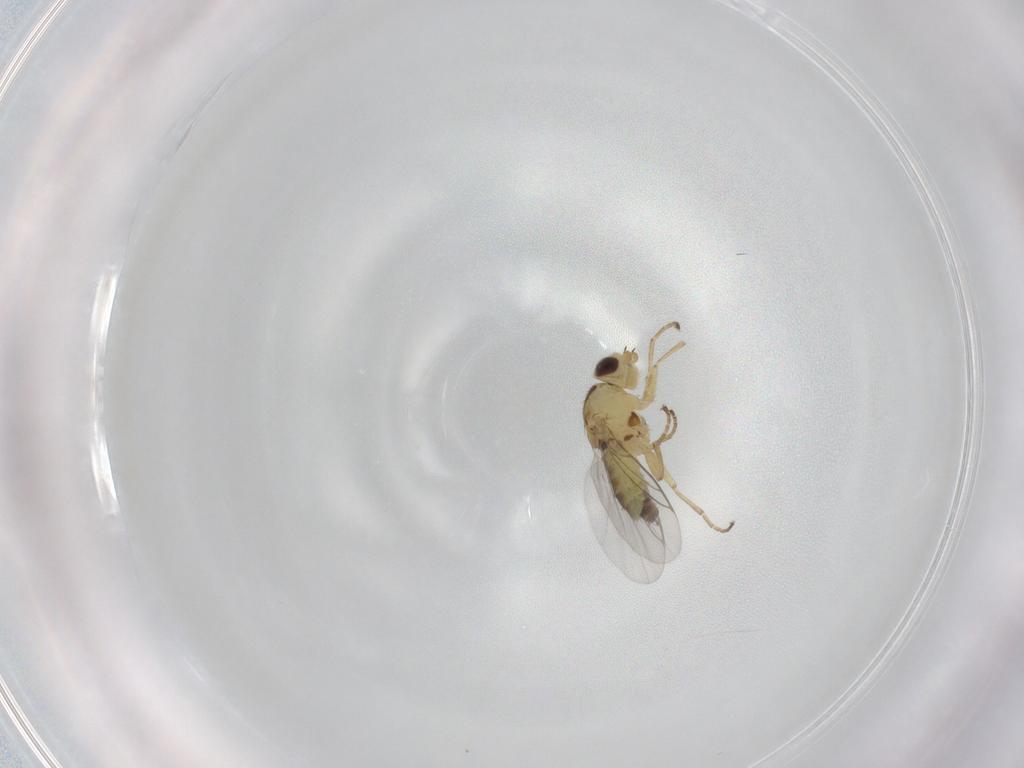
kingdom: Animalia
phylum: Arthropoda
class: Insecta
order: Diptera
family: Agromyzidae
